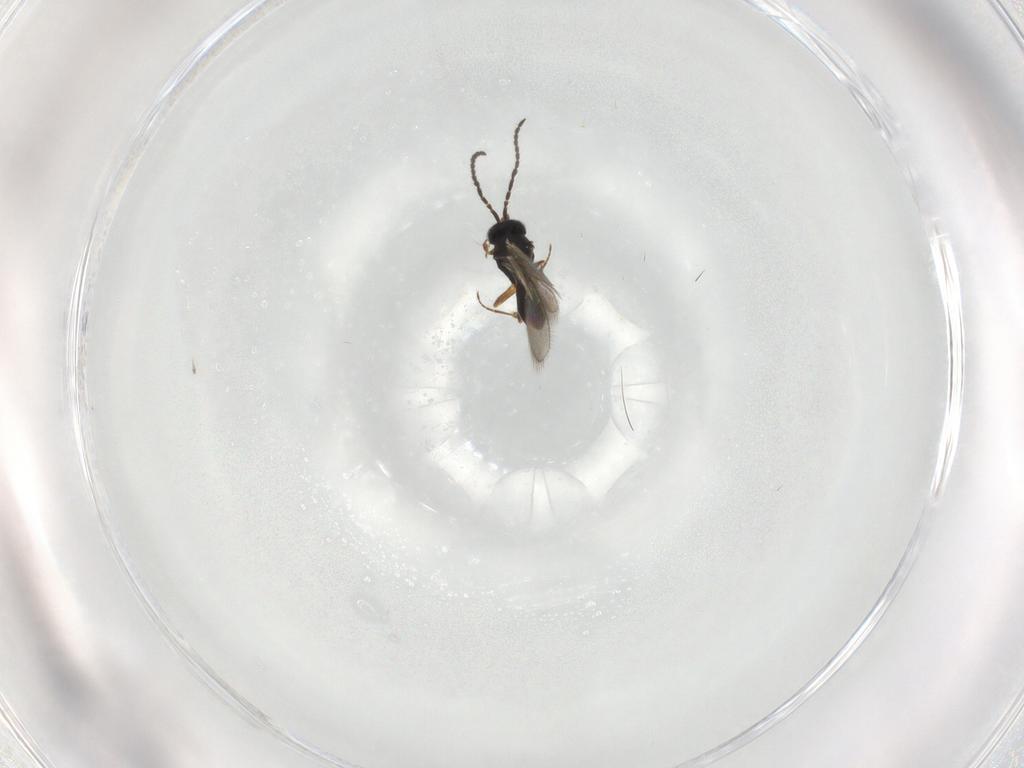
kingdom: Animalia
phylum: Arthropoda
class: Insecta
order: Hymenoptera
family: Scelionidae
